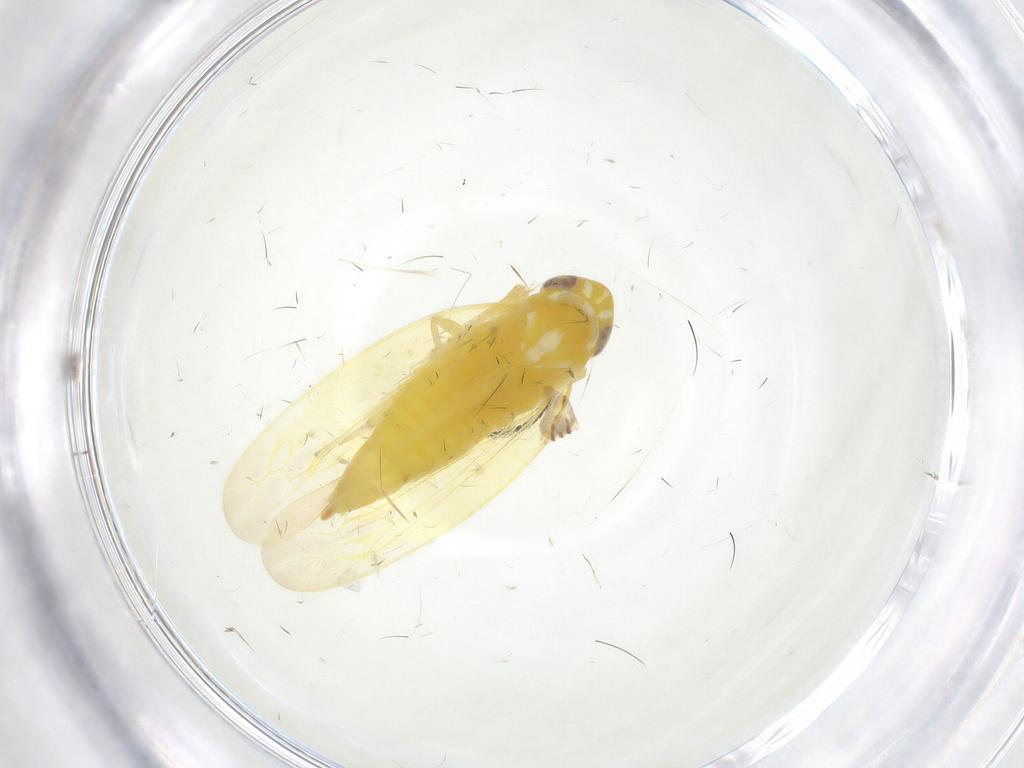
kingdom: Animalia
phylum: Arthropoda
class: Insecta
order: Hemiptera
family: Cicadellidae
